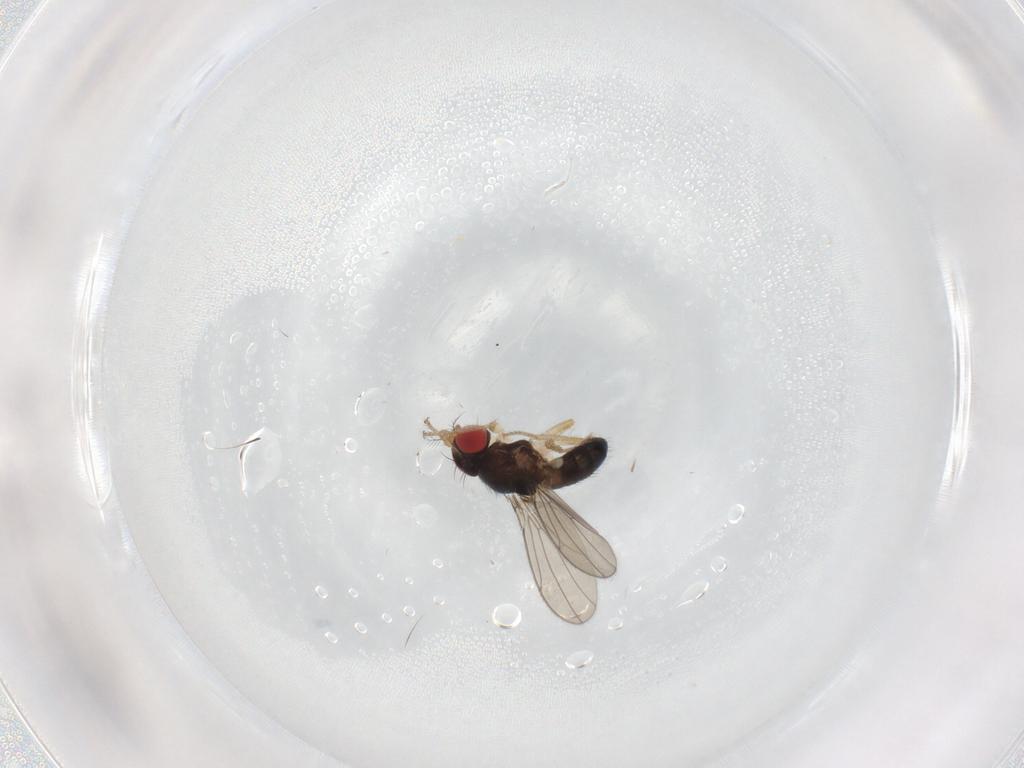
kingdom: Animalia
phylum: Arthropoda
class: Insecta
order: Diptera
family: Drosophilidae
